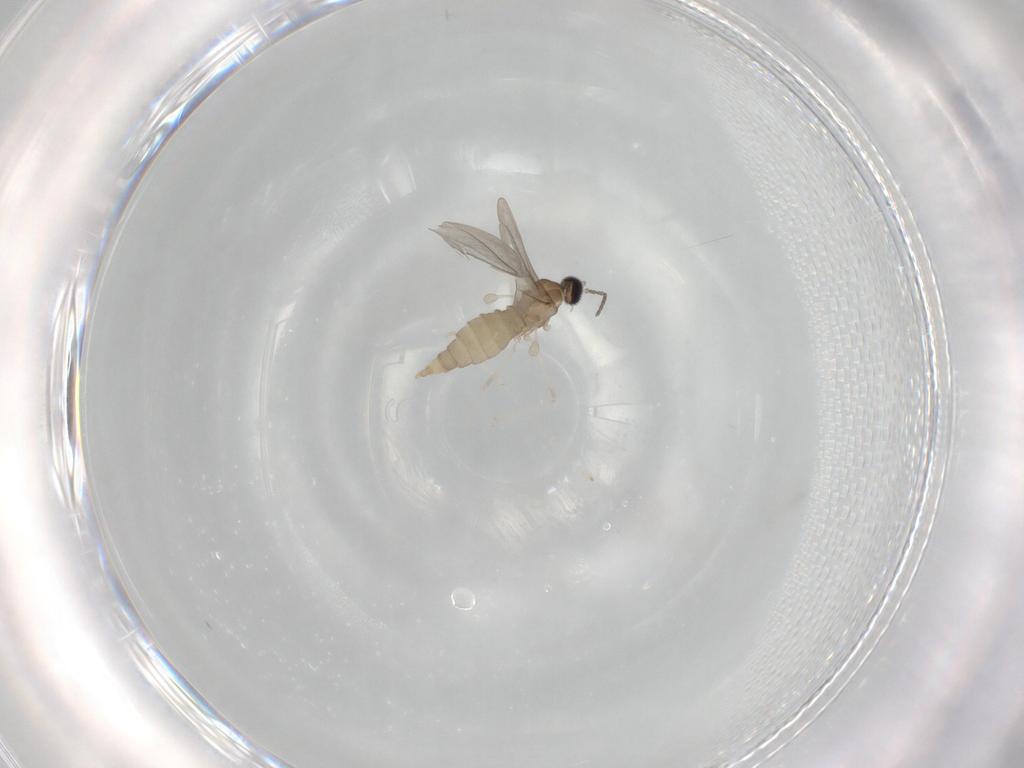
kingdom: Animalia
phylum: Arthropoda
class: Insecta
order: Diptera
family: Cecidomyiidae
